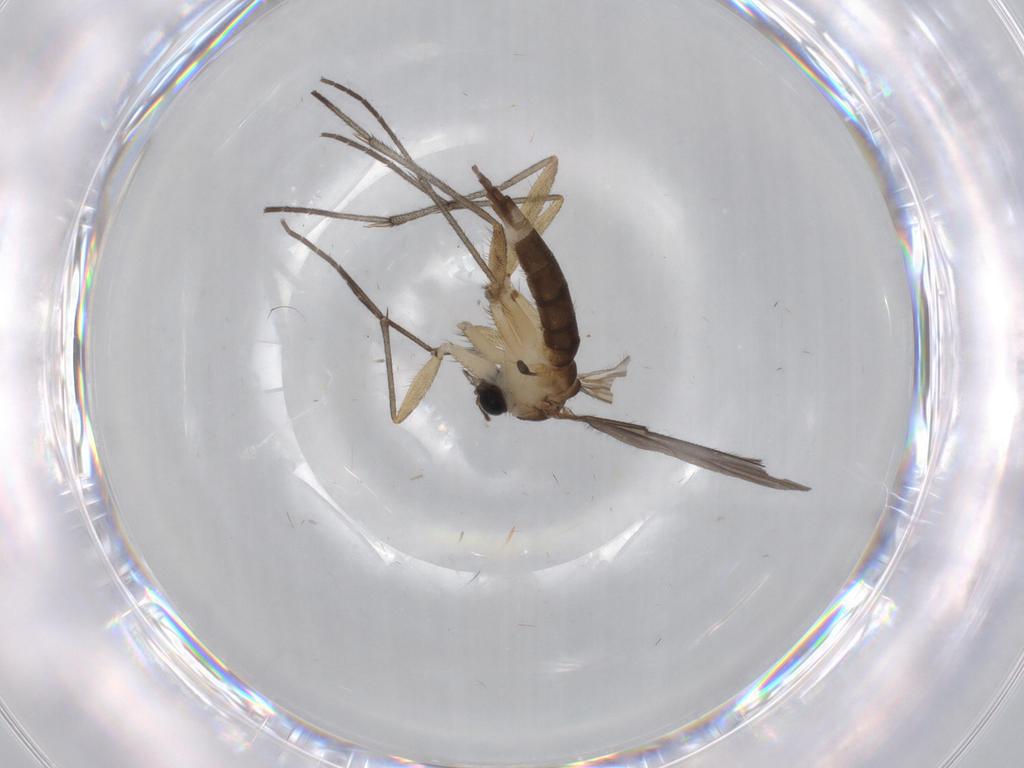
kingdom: Animalia
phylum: Arthropoda
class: Insecta
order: Diptera
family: Sciaridae
